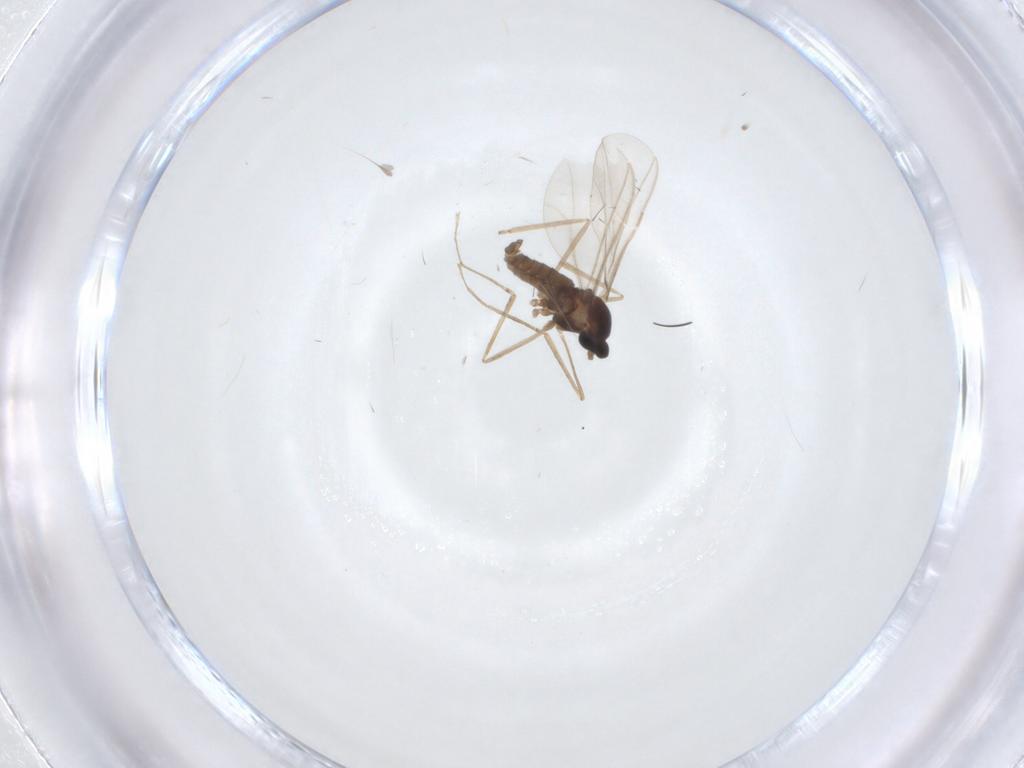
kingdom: Animalia
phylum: Arthropoda
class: Insecta
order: Diptera
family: Cecidomyiidae
